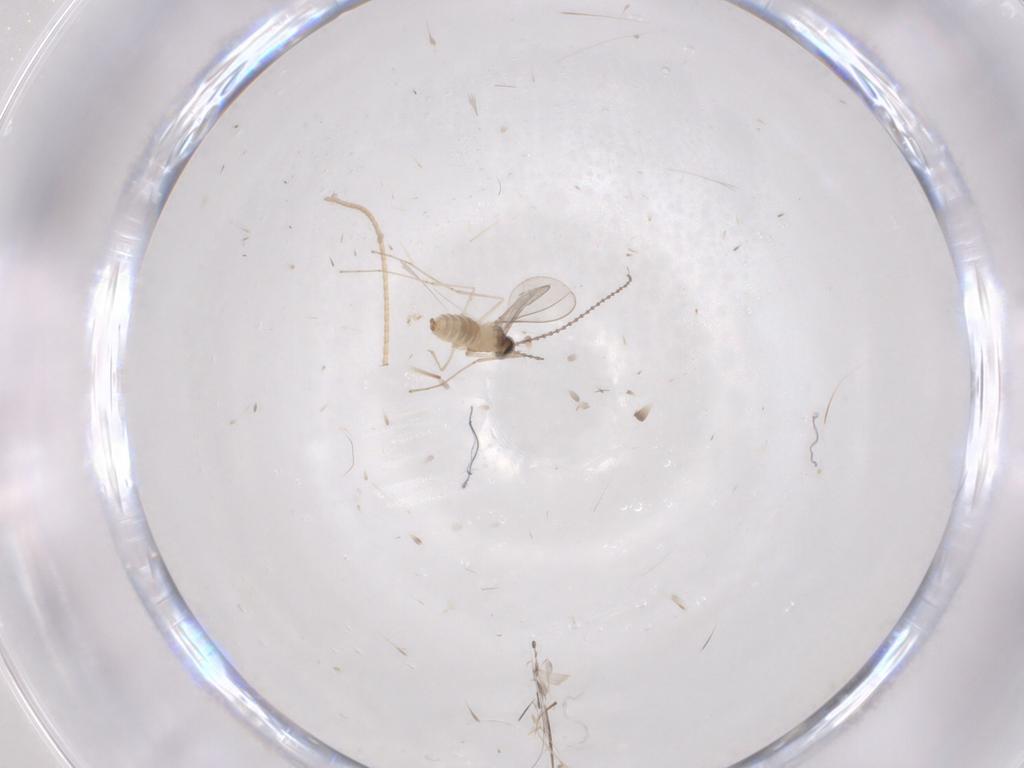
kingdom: Animalia
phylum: Arthropoda
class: Insecta
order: Diptera
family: Cecidomyiidae
